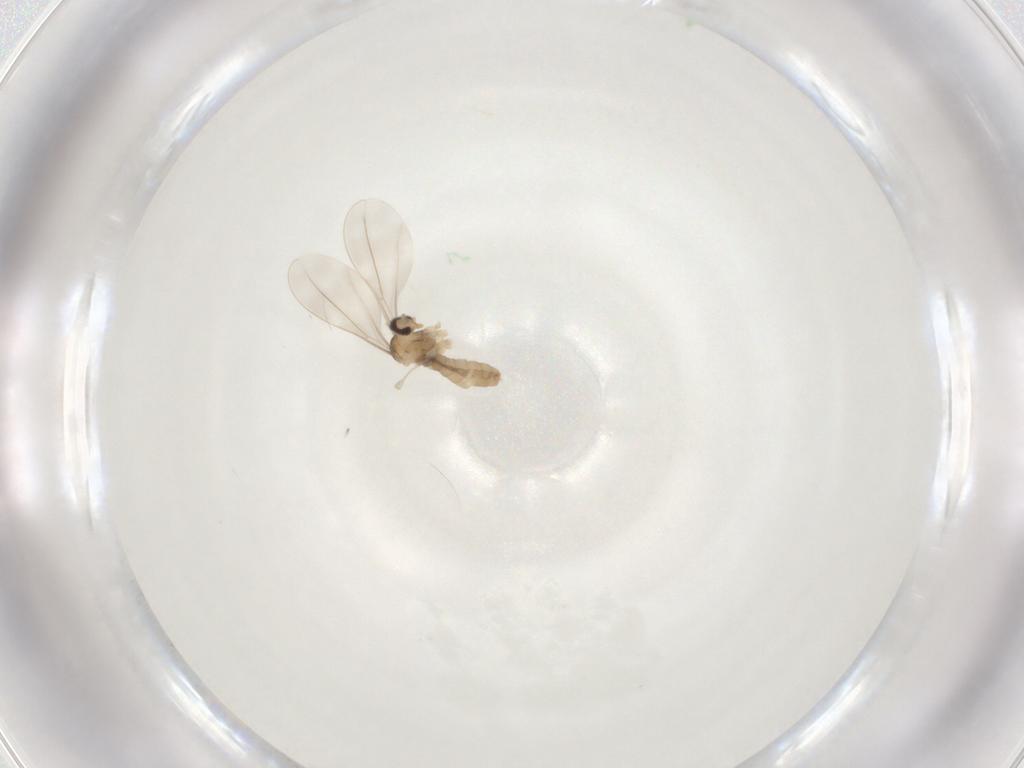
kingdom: Animalia
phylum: Arthropoda
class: Insecta
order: Diptera
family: Cecidomyiidae
